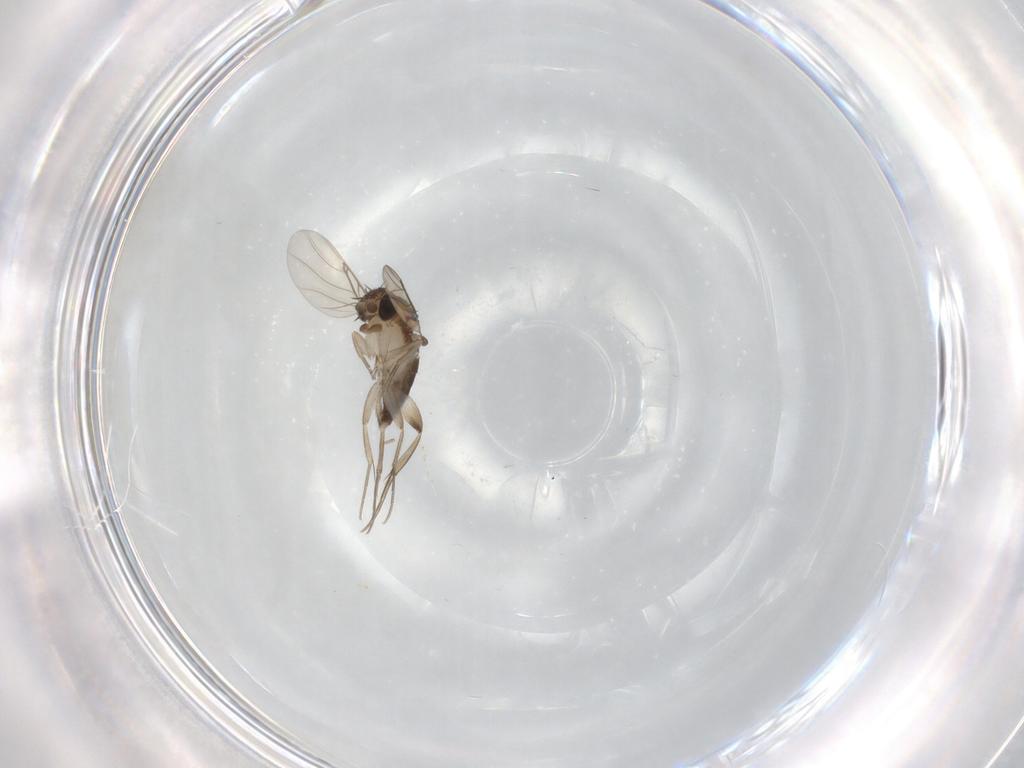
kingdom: Animalia
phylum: Arthropoda
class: Insecta
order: Diptera
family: Phoridae
